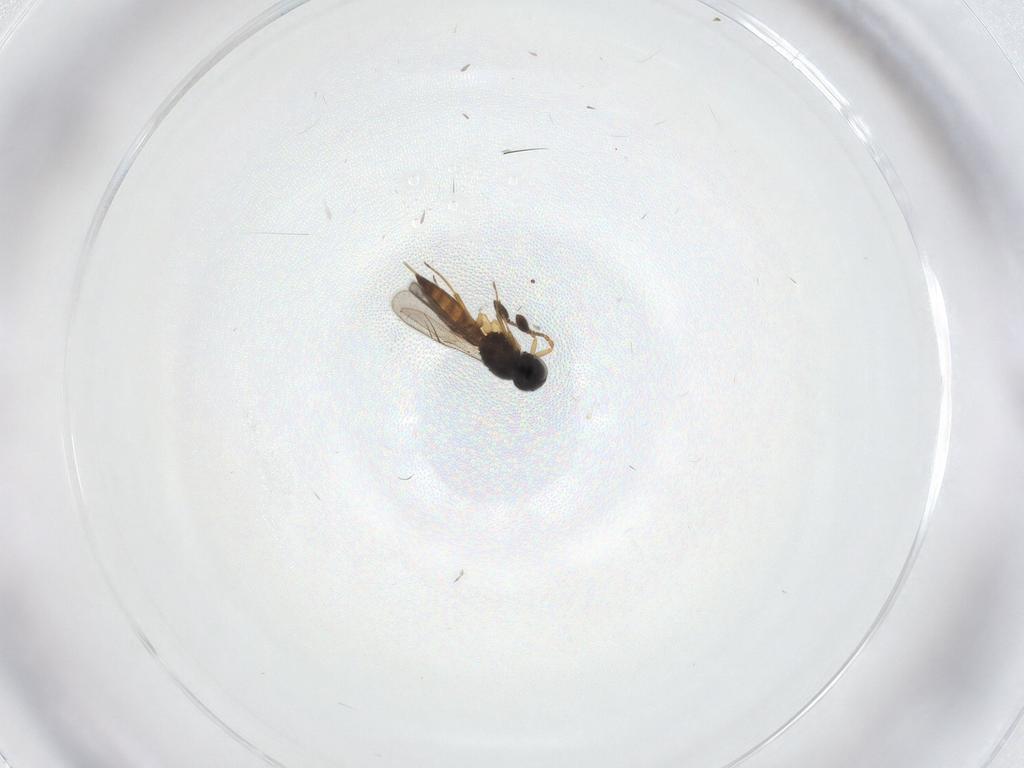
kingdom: Animalia
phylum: Arthropoda
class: Insecta
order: Hymenoptera
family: Scelionidae
